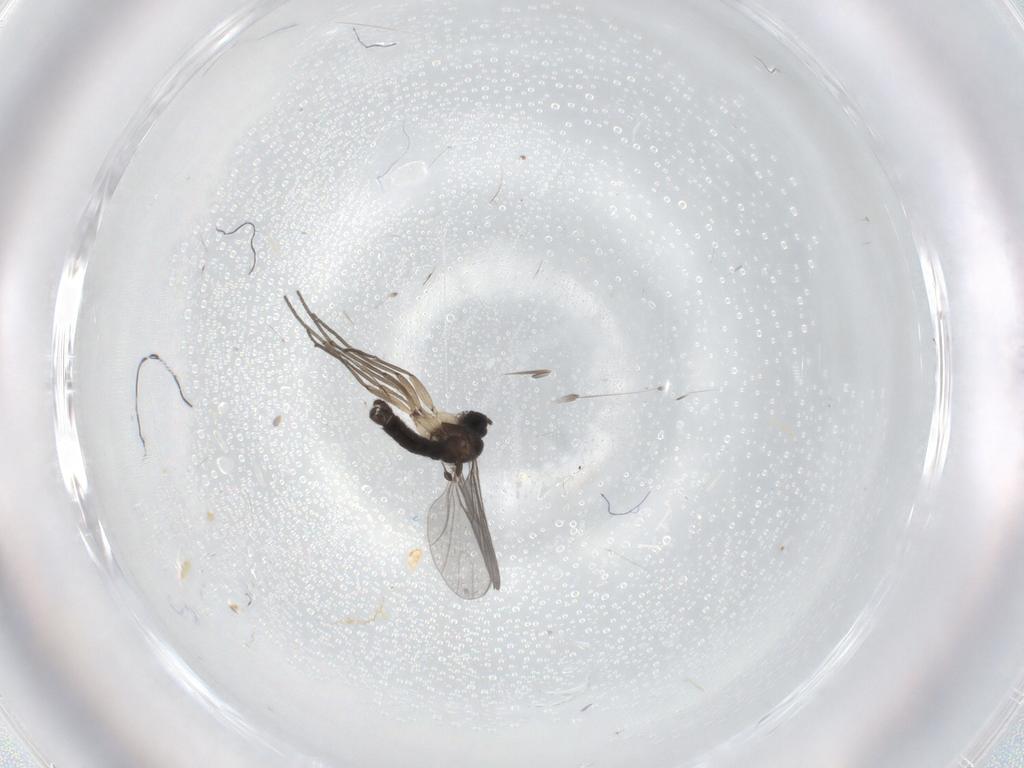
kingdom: Animalia
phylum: Arthropoda
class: Insecta
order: Diptera
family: Sciaridae
